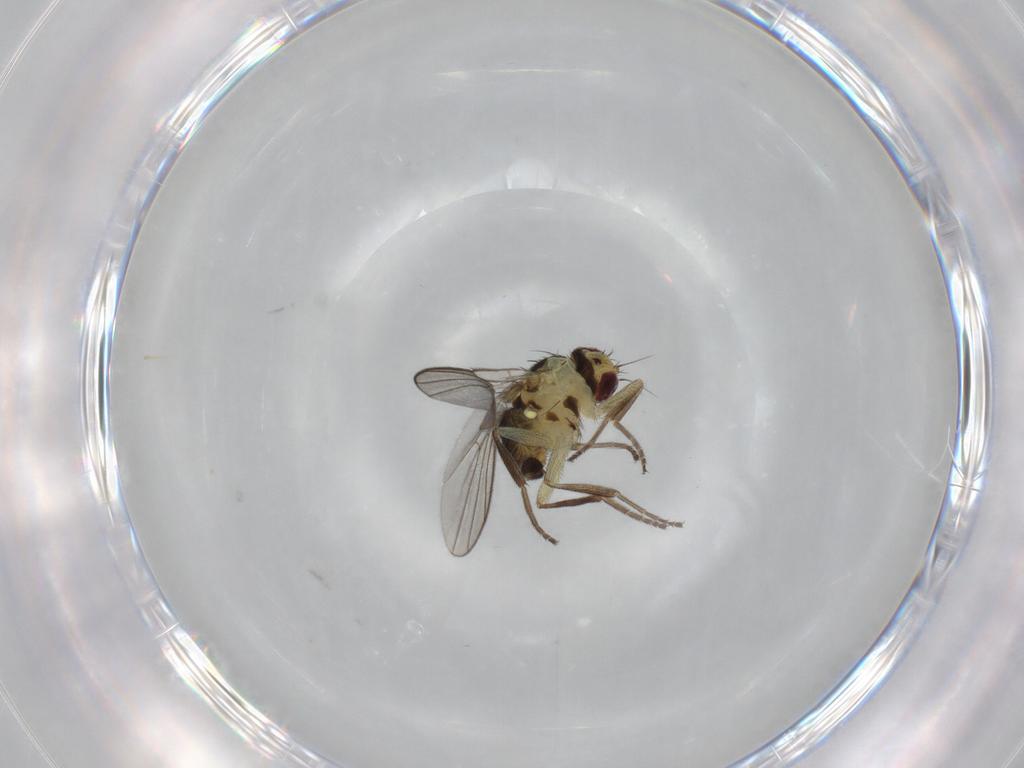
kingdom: Animalia
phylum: Arthropoda
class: Insecta
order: Diptera
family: Agromyzidae
